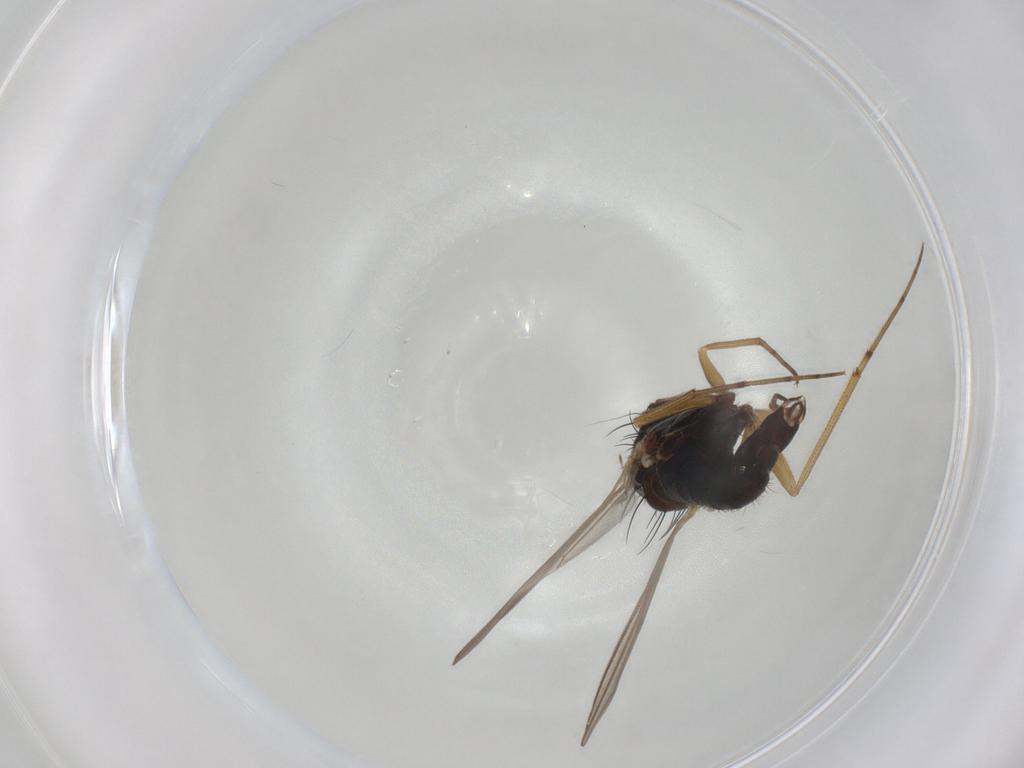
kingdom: Animalia
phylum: Arthropoda
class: Insecta
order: Diptera
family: Dolichopodidae
